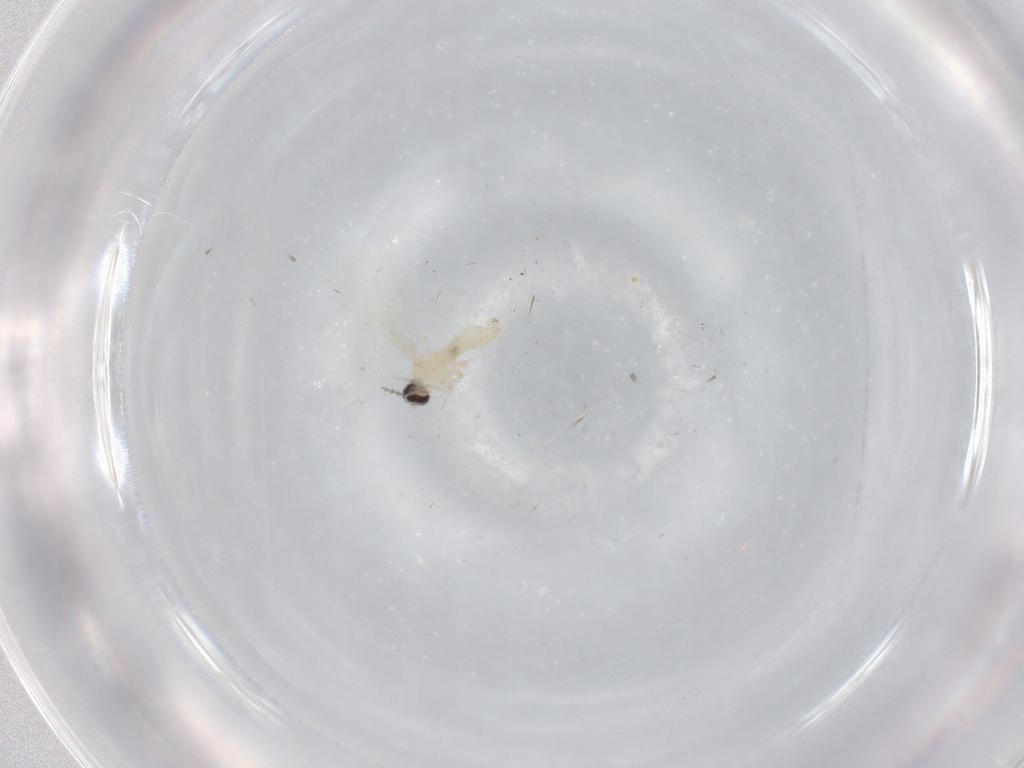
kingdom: Animalia
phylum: Arthropoda
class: Insecta
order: Diptera
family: Cecidomyiidae
